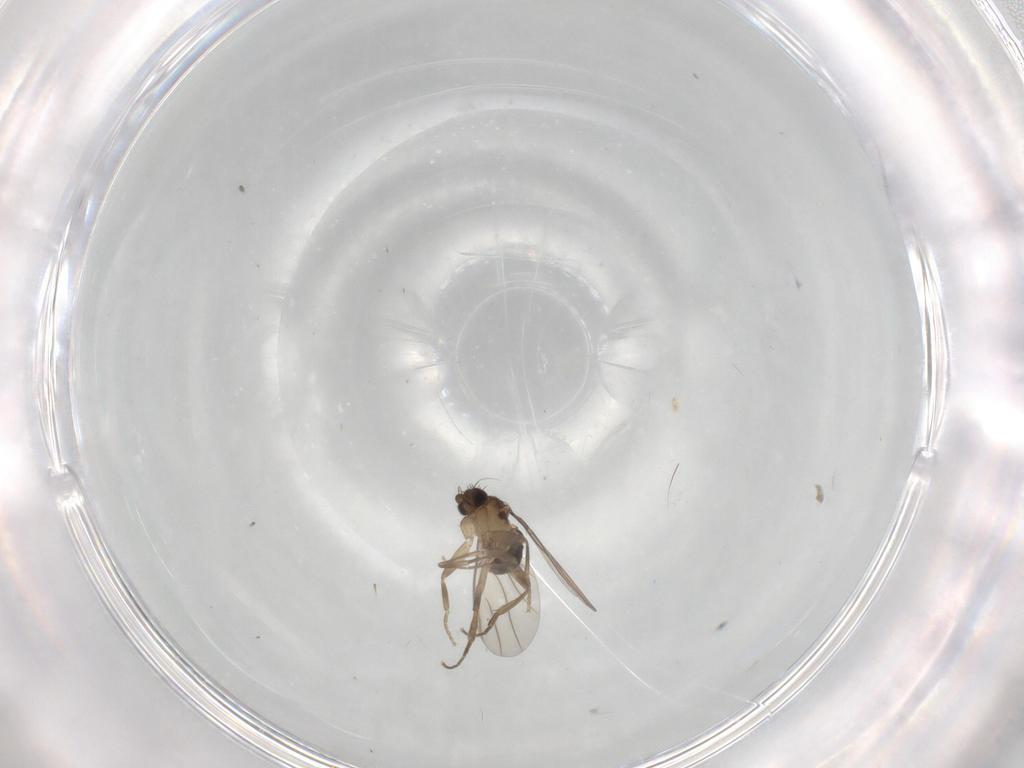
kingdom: Animalia
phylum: Arthropoda
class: Insecta
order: Diptera
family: Phoridae
